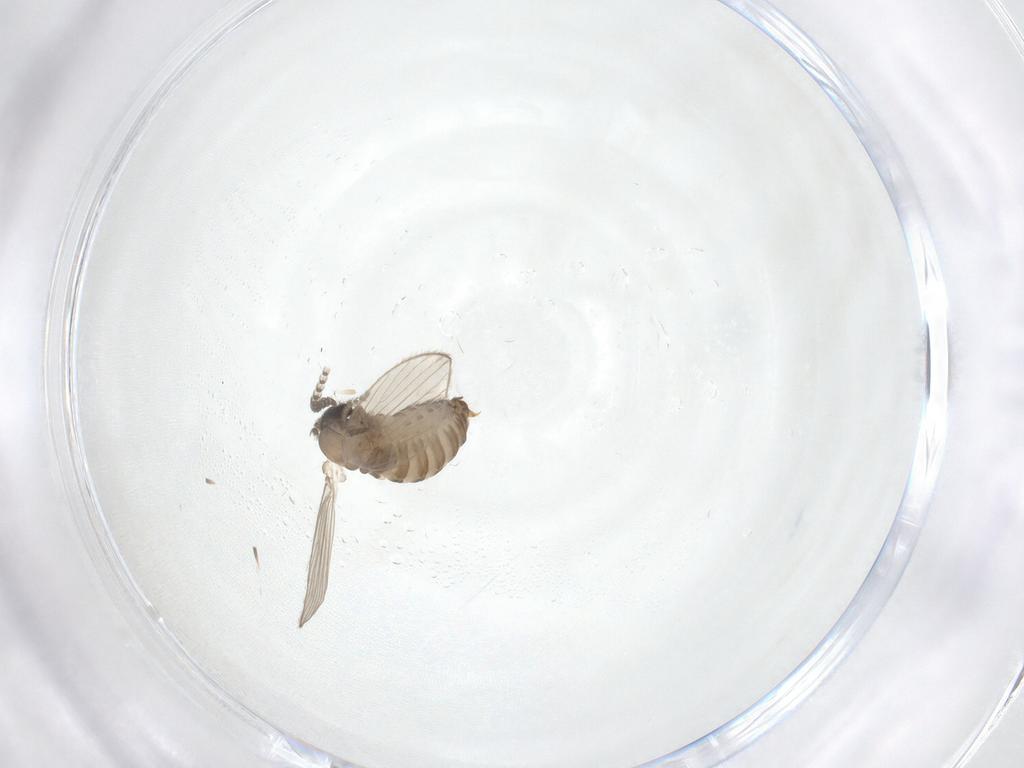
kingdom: Animalia
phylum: Arthropoda
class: Insecta
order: Diptera
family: Psychodidae
